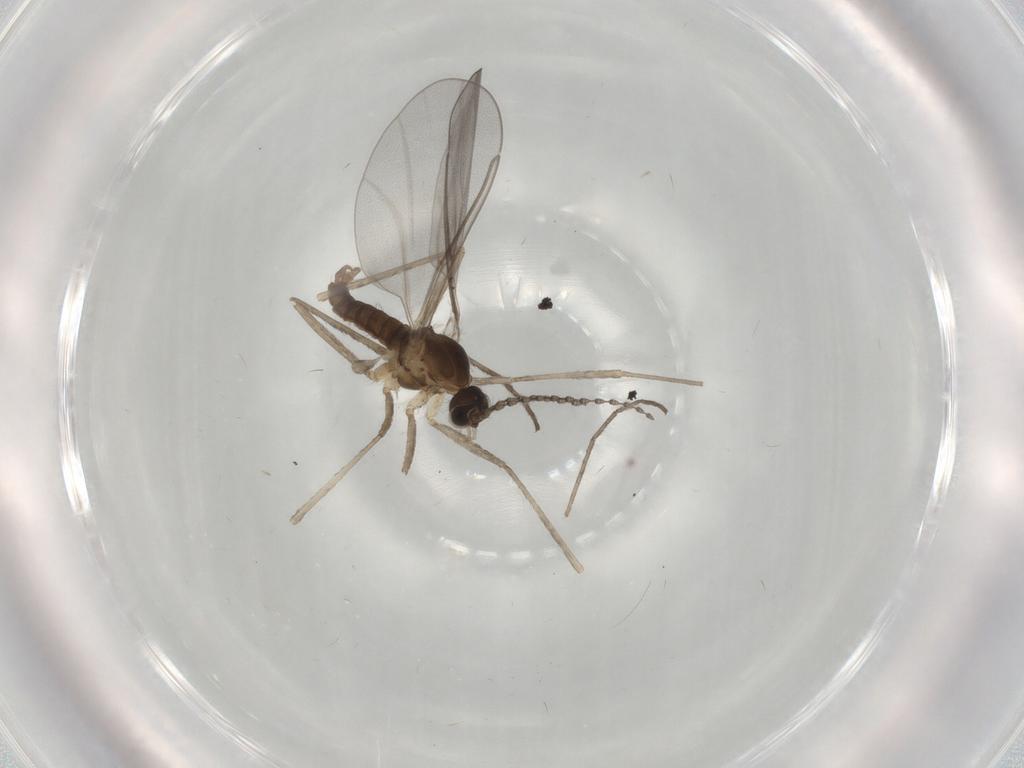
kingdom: Animalia
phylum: Arthropoda
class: Insecta
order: Diptera
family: Cecidomyiidae
